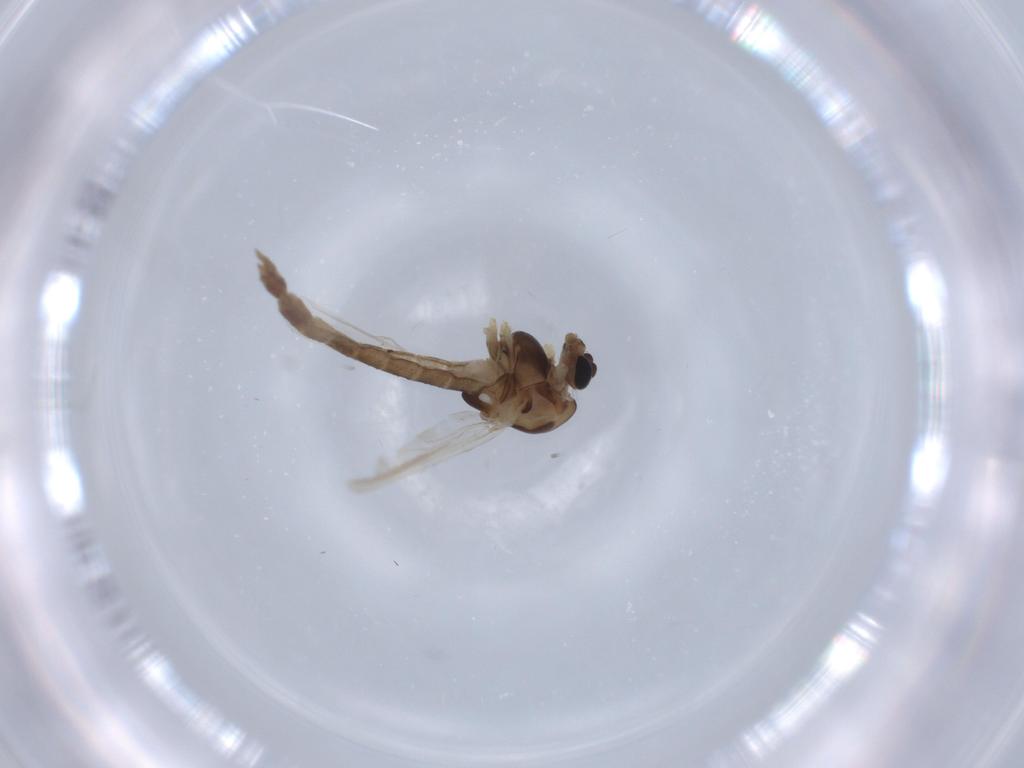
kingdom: Animalia
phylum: Arthropoda
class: Insecta
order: Diptera
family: Chironomidae
